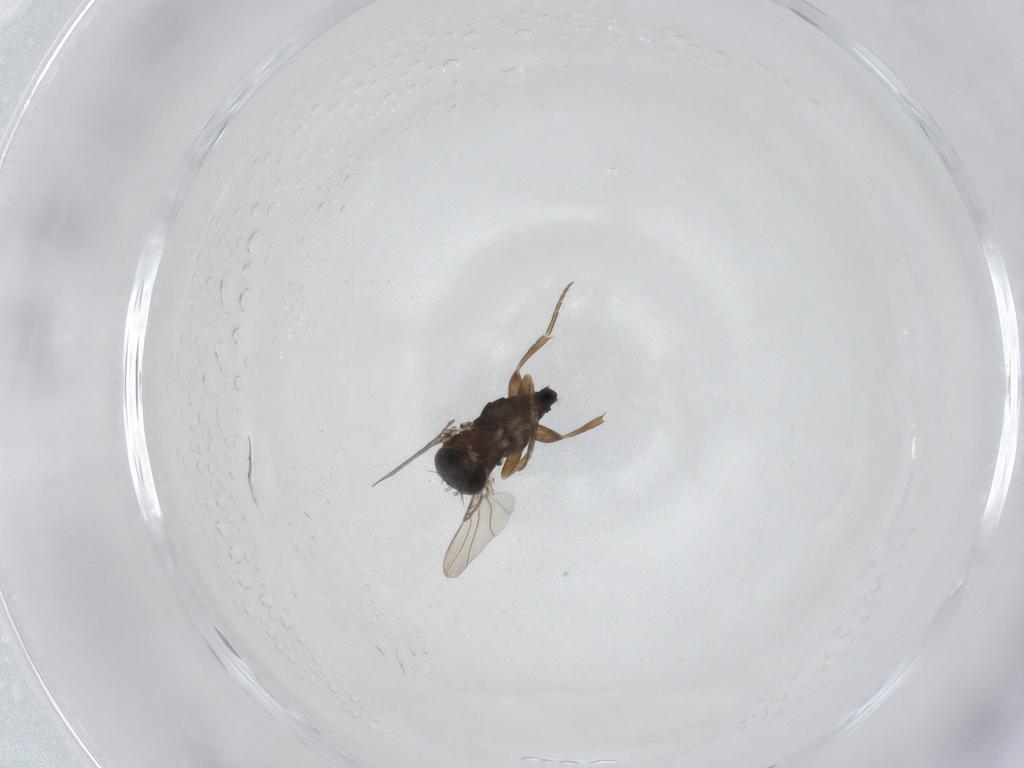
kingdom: Animalia
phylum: Arthropoda
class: Insecta
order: Diptera
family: Phoridae
